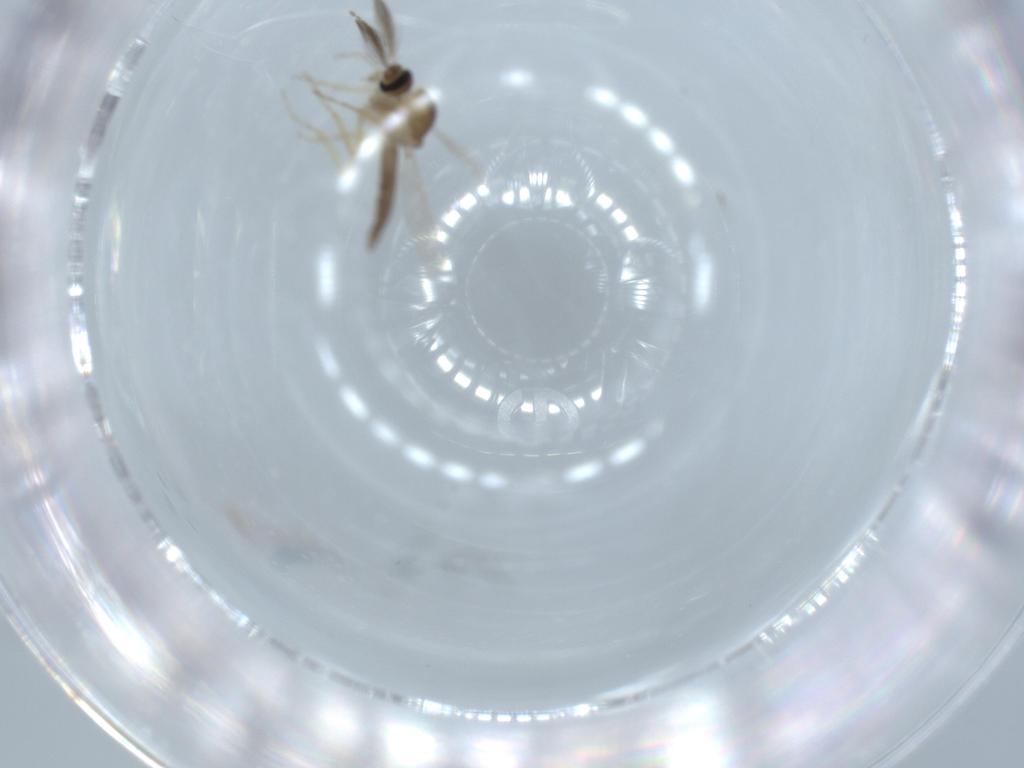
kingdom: Animalia
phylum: Arthropoda
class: Insecta
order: Diptera
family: Ceratopogonidae
